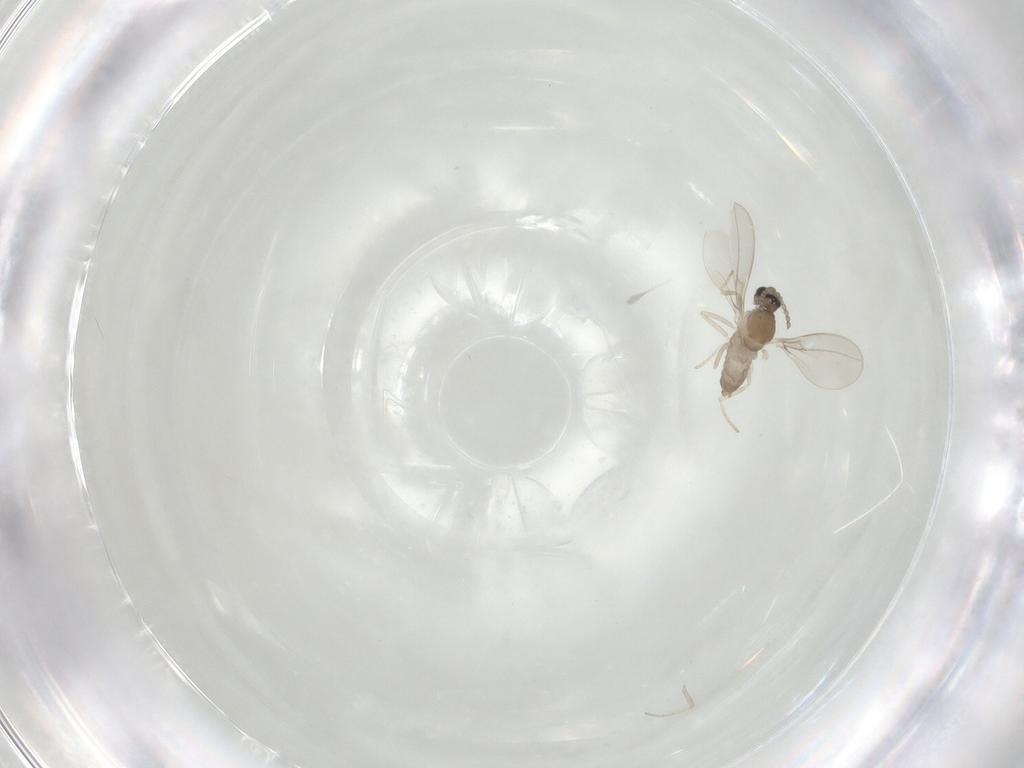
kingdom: Animalia
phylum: Arthropoda
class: Insecta
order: Diptera
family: Cecidomyiidae
